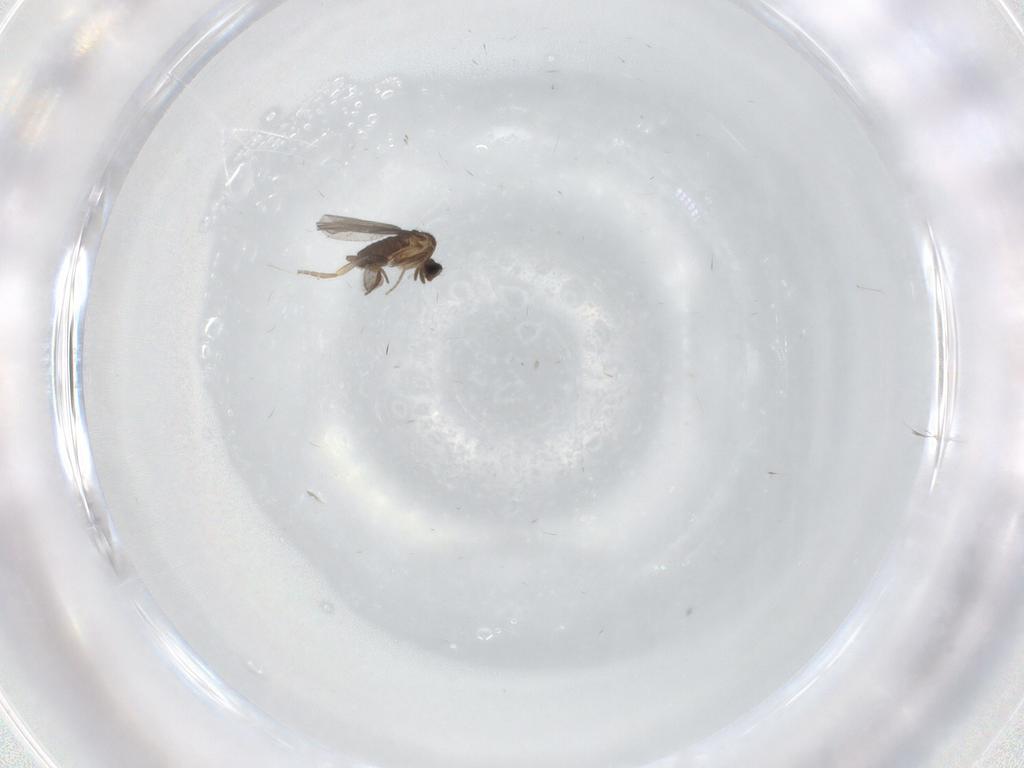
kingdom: Animalia
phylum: Arthropoda
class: Insecta
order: Diptera
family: Phoridae
